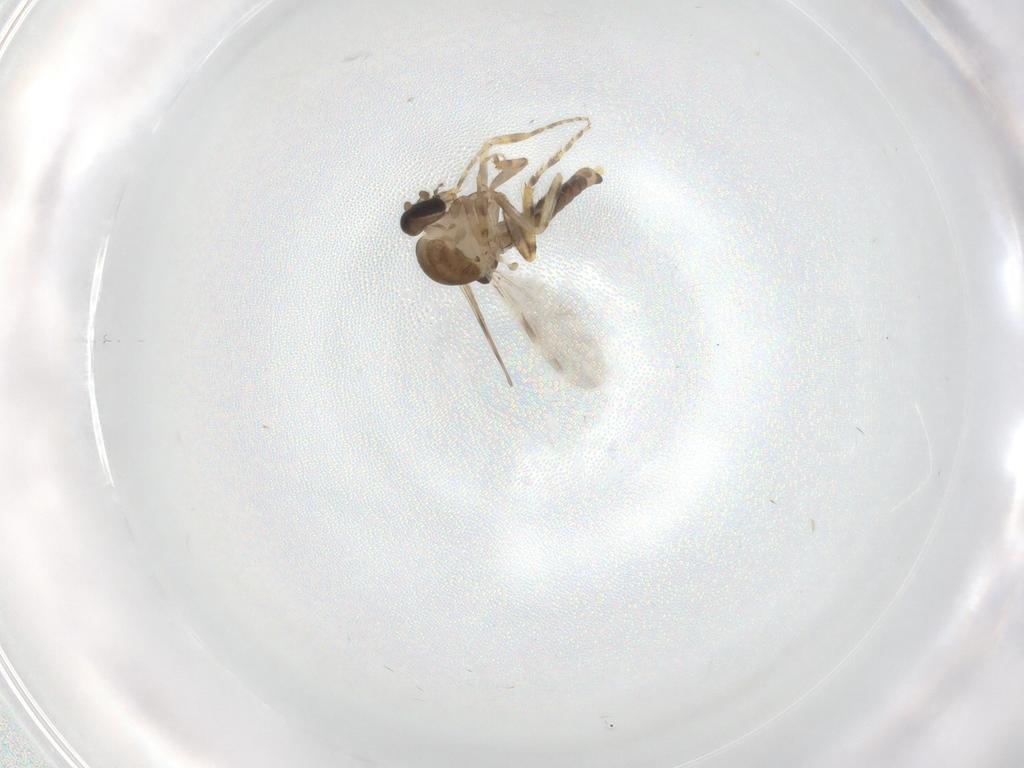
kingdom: Animalia
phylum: Arthropoda
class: Insecta
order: Diptera
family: Ceratopogonidae
